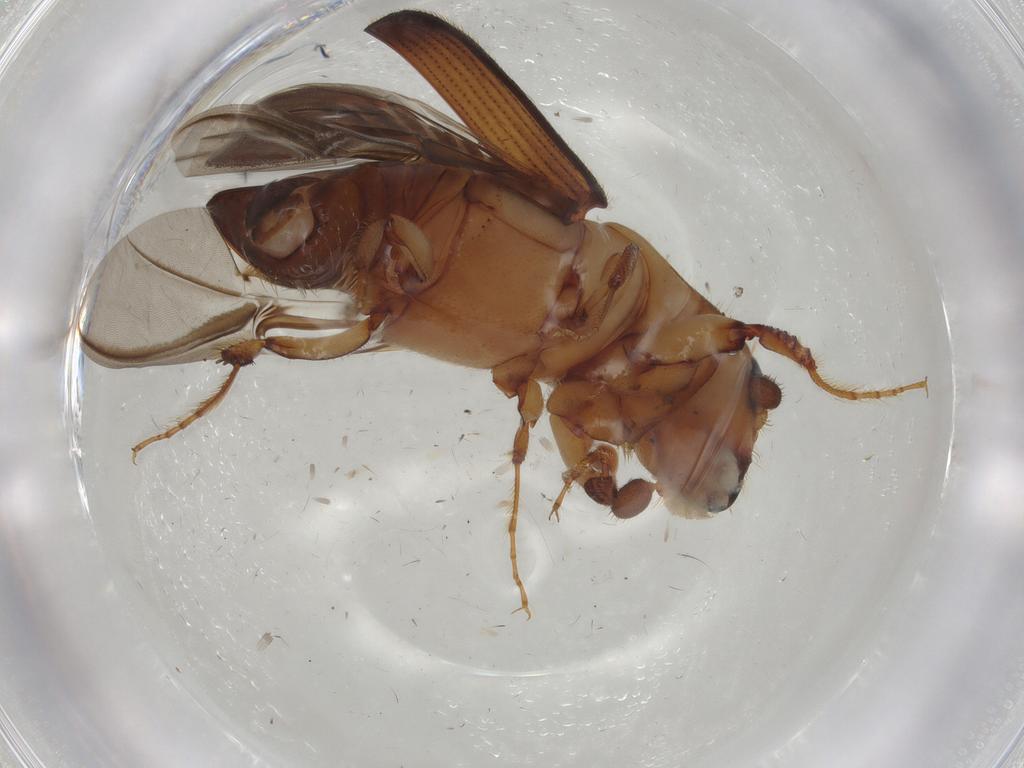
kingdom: Animalia
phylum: Arthropoda
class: Insecta
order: Coleoptera
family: Curculionidae
